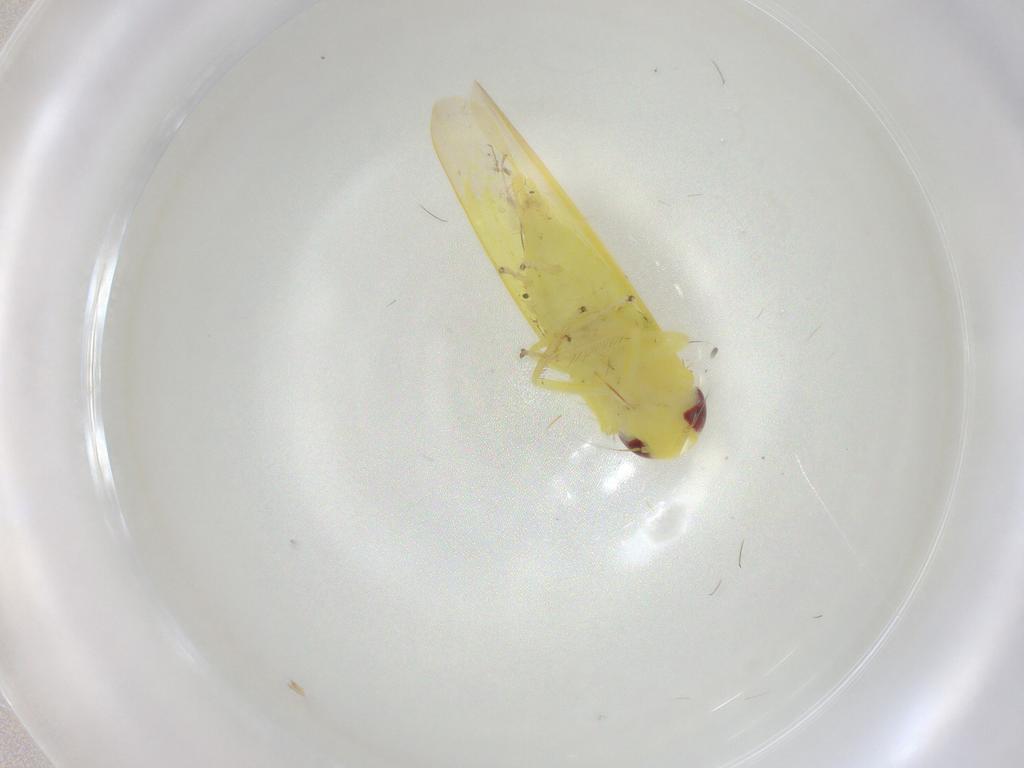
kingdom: Animalia
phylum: Arthropoda
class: Insecta
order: Hemiptera
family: Cicadellidae
